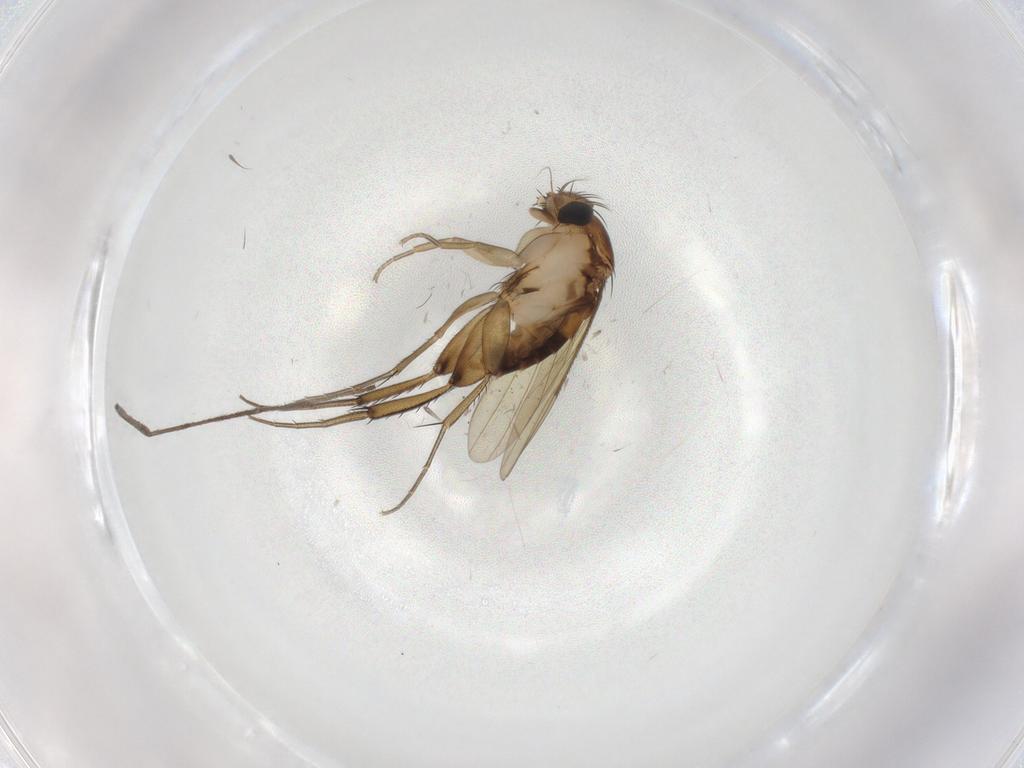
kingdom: Animalia
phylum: Arthropoda
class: Insecta
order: Diptera
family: Phoridae
